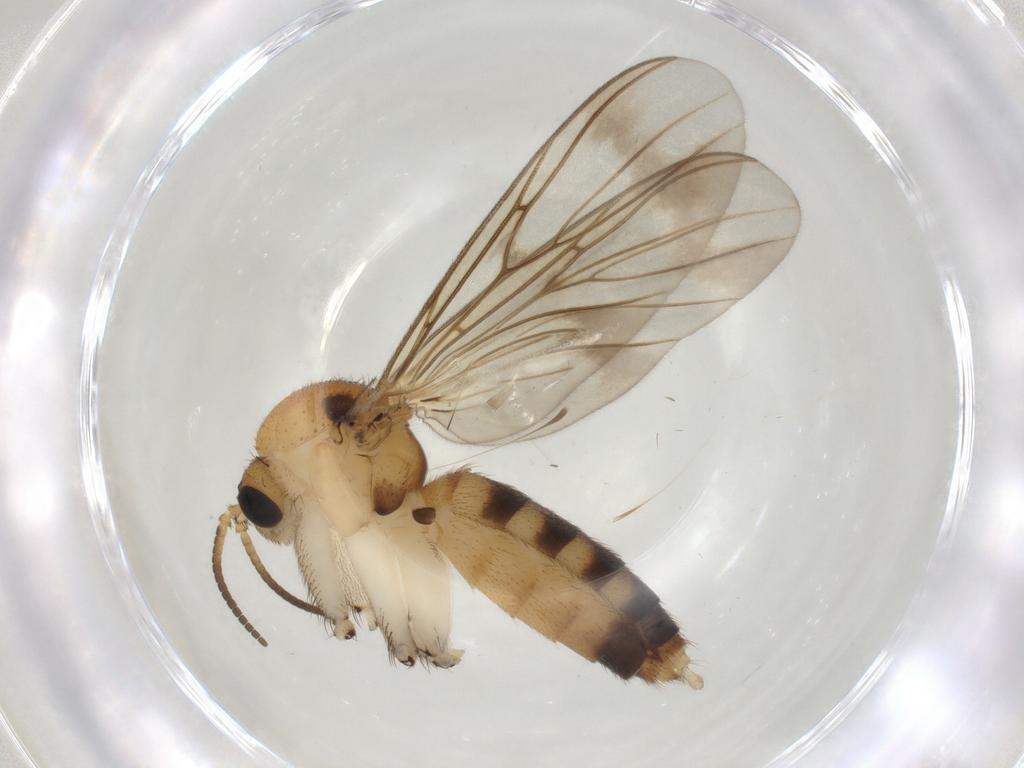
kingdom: Animalia
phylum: Arthropoda
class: Insecta
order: Diptera
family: Mycetophilidae
